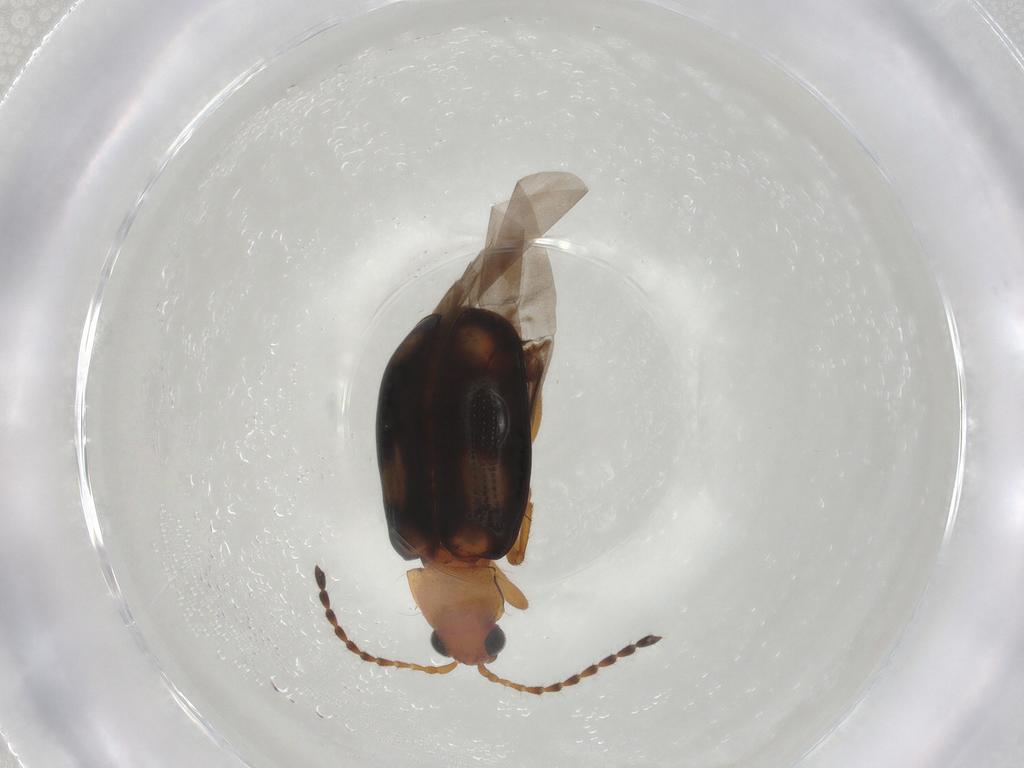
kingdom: Animalia
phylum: Arthropoda
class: Insecta
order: Coleoptera
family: Chrysomelidae
